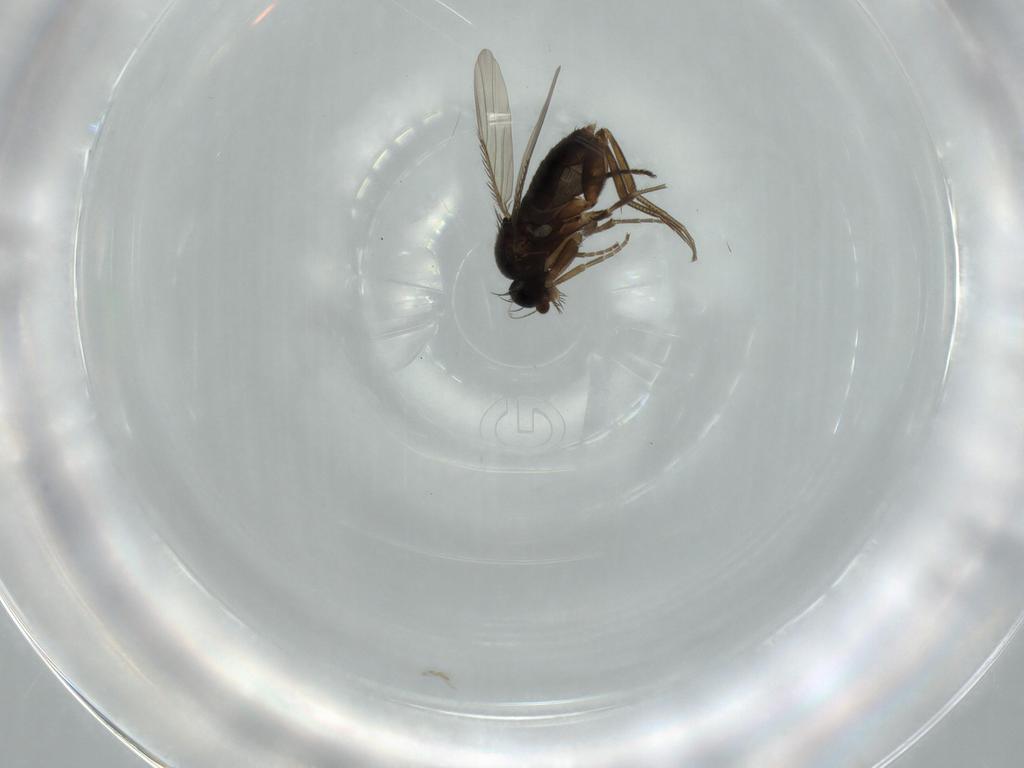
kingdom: Animalia
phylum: Arthropoda
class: Insecta
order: Diptera
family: Phoridae
